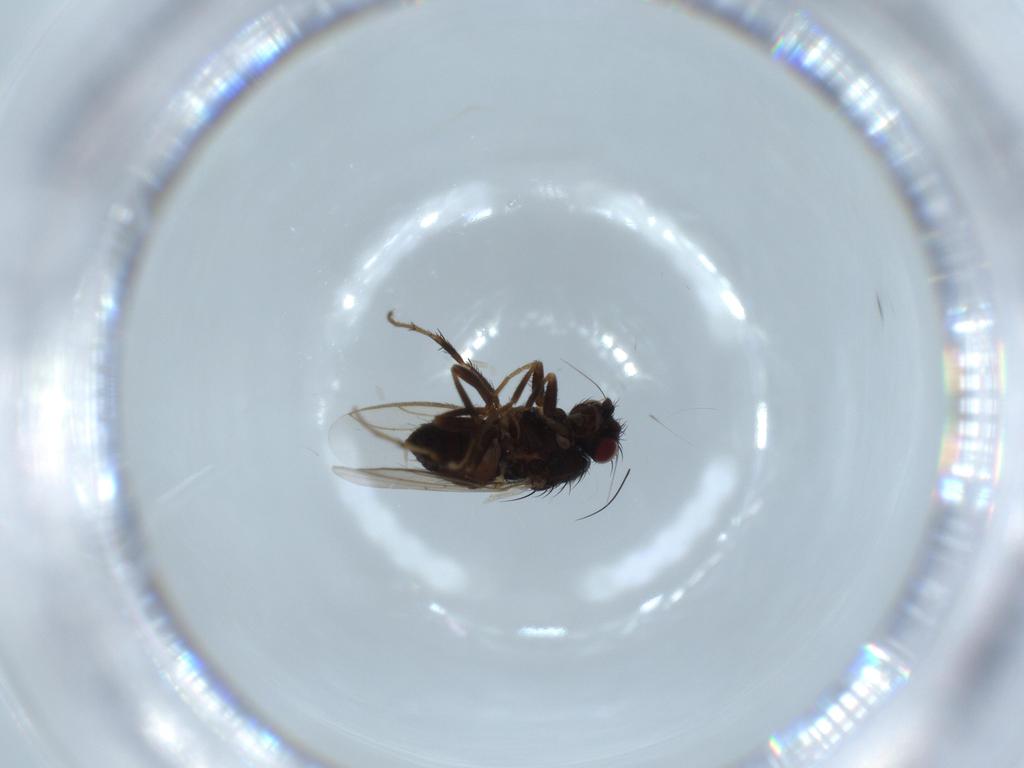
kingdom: Animalia
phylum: Arthropoda
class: Insecta
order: Diptera
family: Sphaeroceridae
